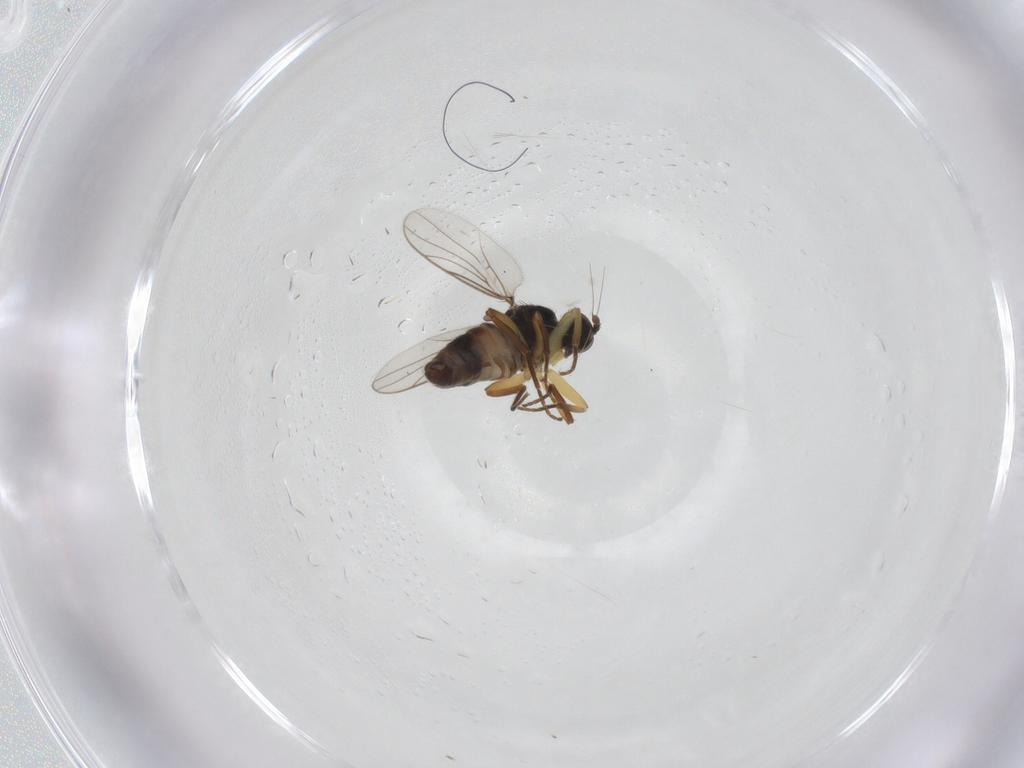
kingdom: Animalia
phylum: Arthropoda
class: Insecta
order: Diptera
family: Hybotidae
